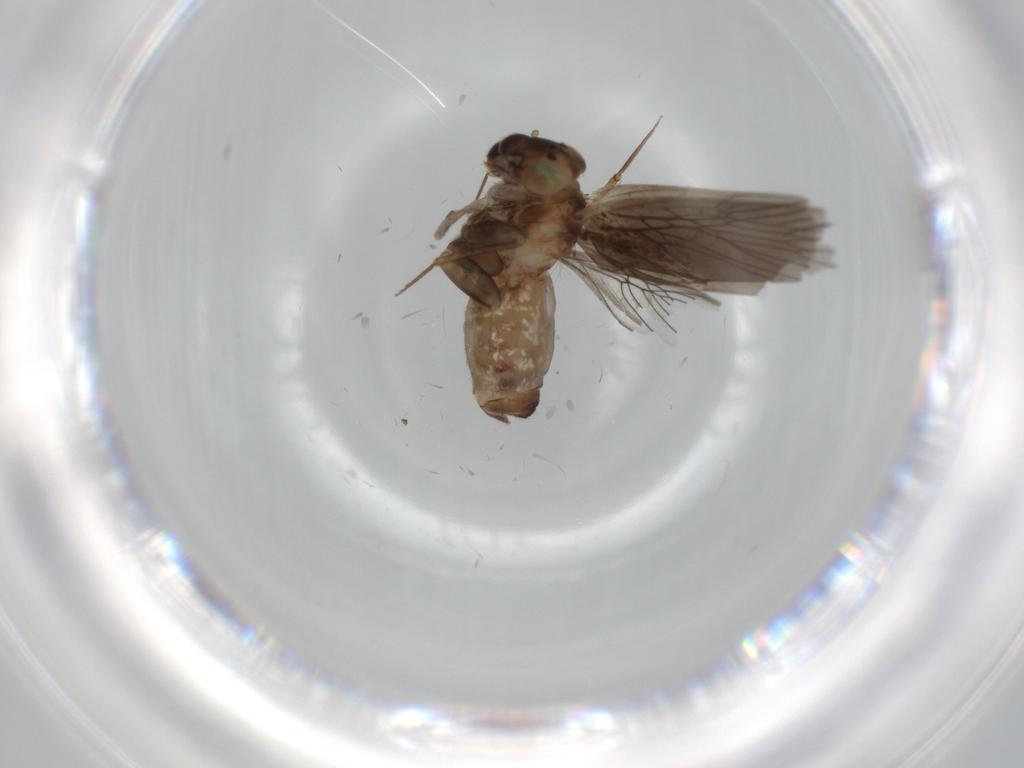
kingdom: Animalia
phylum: Arthropoda
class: Insecta
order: Psocodea
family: Lepidopsocidae
